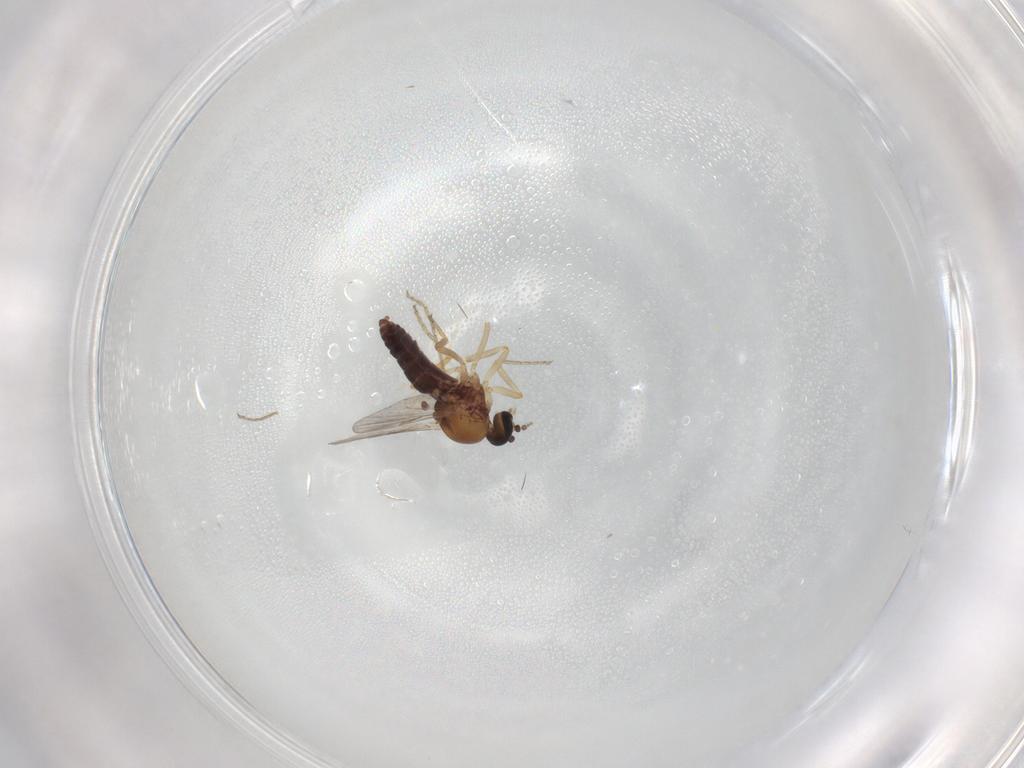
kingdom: Animalia
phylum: Arthropoda
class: Insecta
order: Diptera
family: Ceratopogonidae
